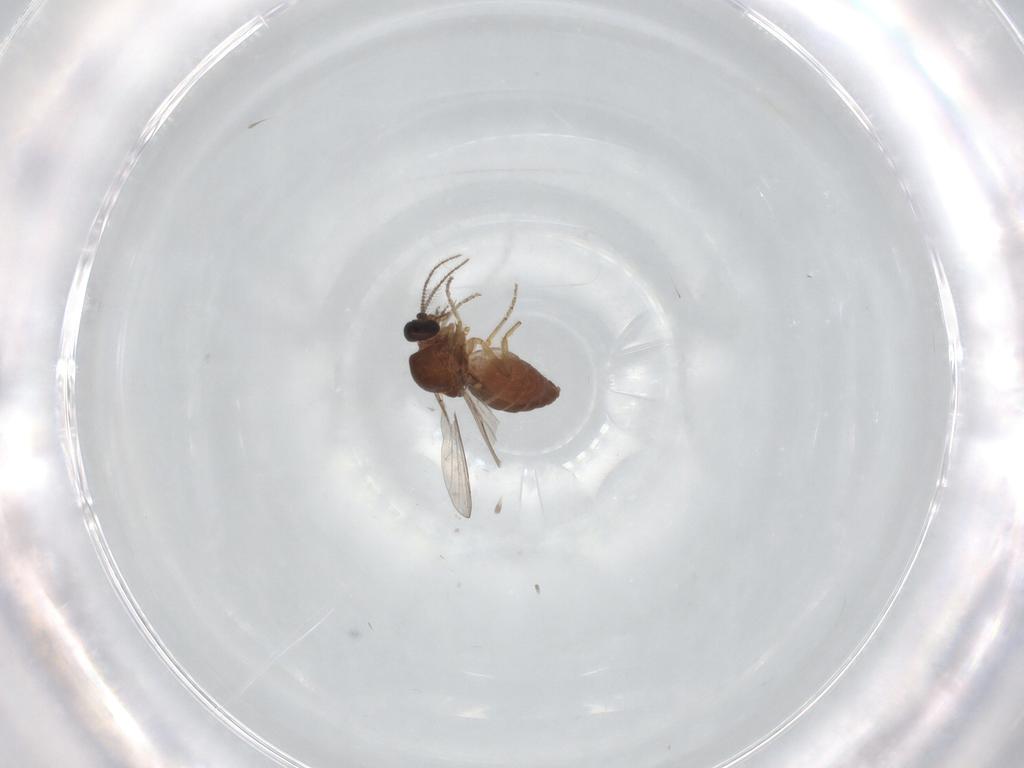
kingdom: Animalia
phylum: Arthropoda
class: Insecta
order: Diptera
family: Ceratopogonidae
